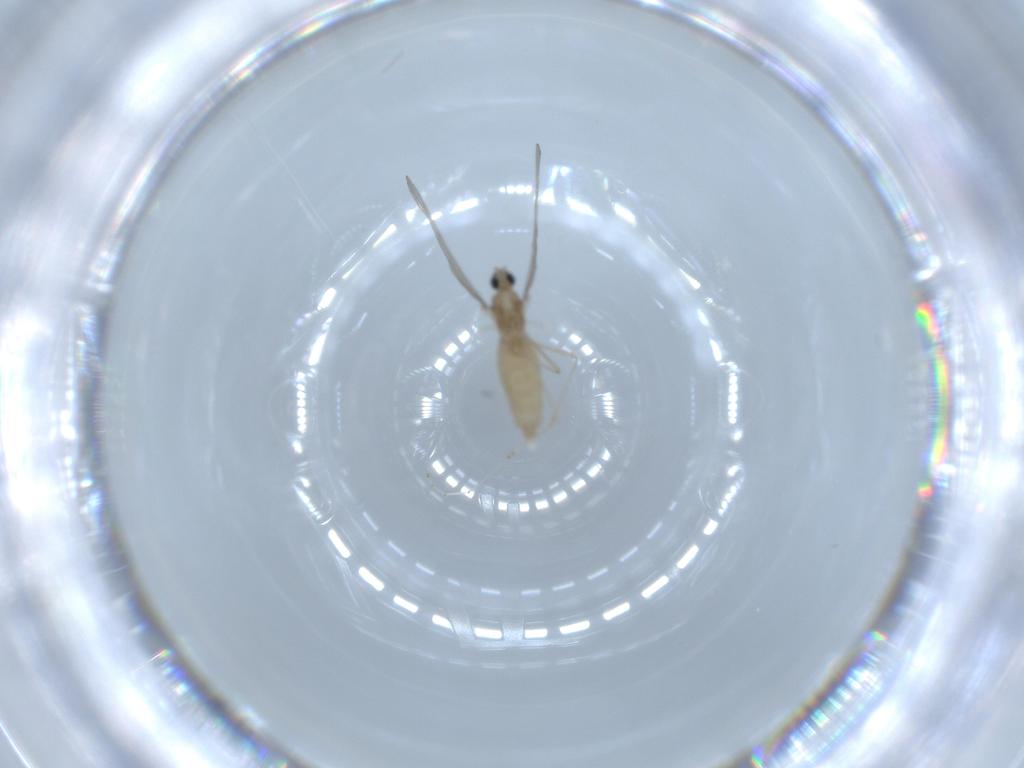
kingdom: Animalia
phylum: Arthropoda
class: Insecta
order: Diptera
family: Cecidomyiidae
